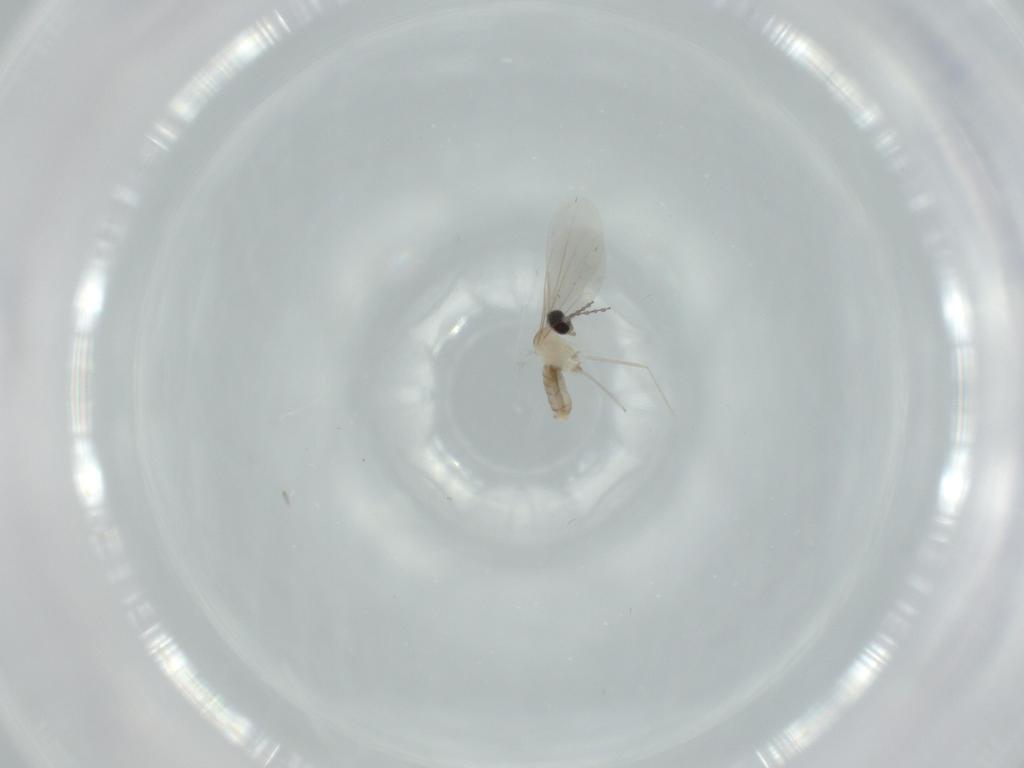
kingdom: Animalia
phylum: Arthropoda
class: Insecta
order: Diptera
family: Cecidomyiidae
